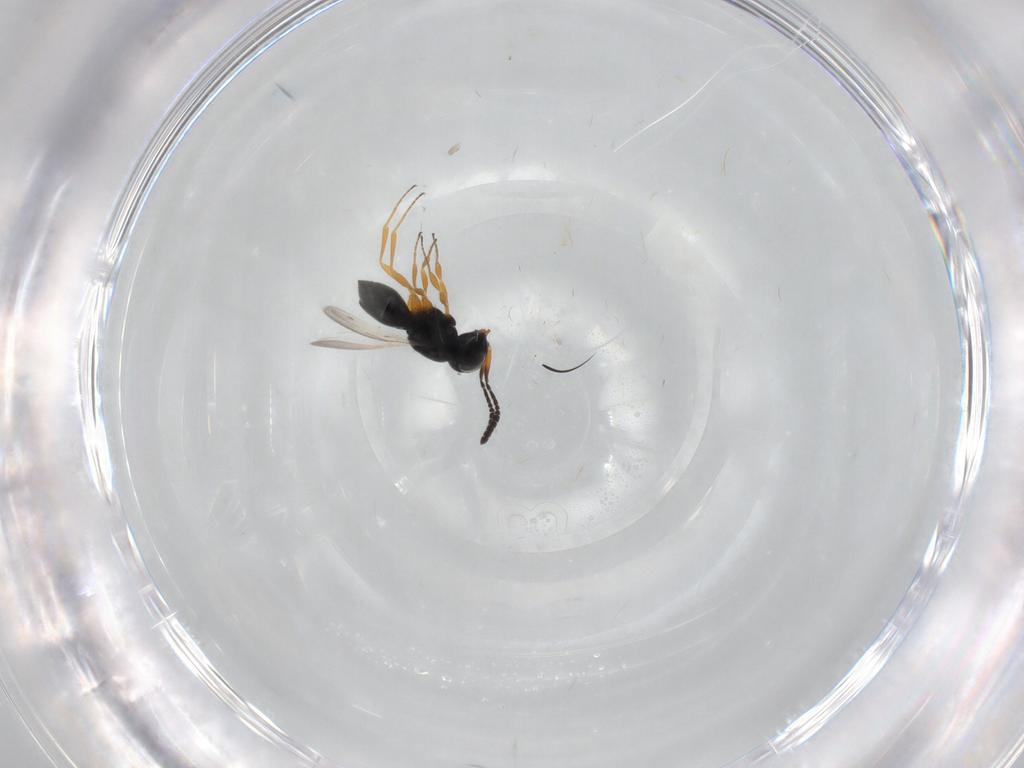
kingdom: Animalia
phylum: Arthropoda
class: Insecta
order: Hymenoptera
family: Scelionidae
